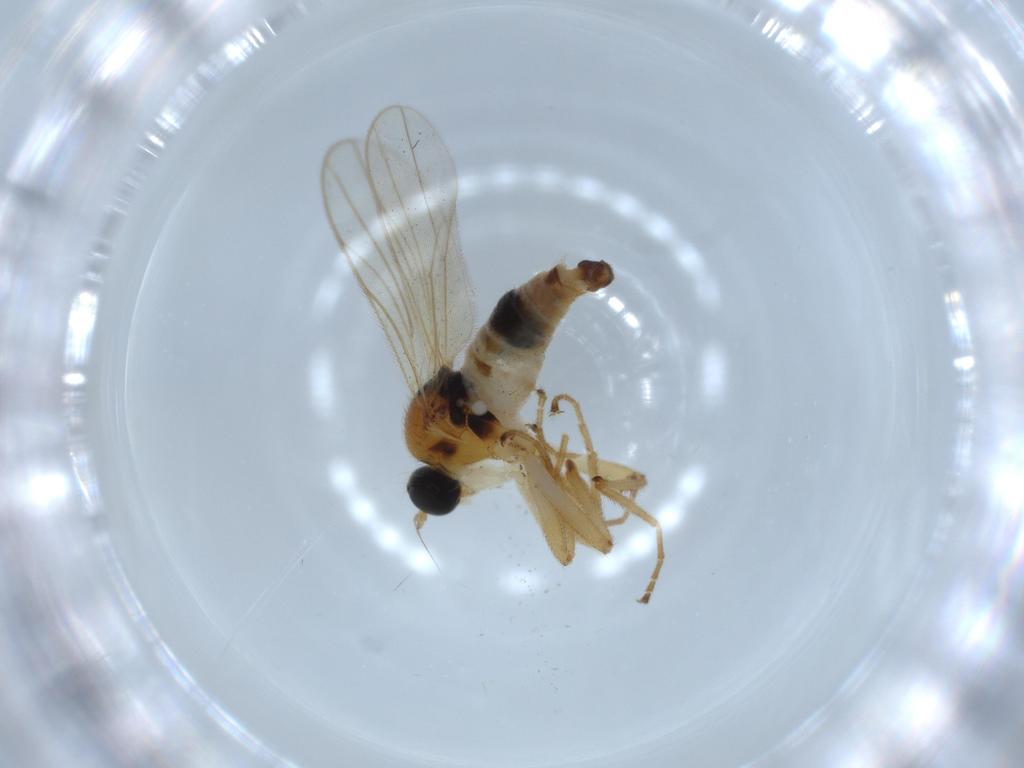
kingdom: Animalia
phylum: Arthropoda
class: Insecta
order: Diptera
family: Hybotidae
